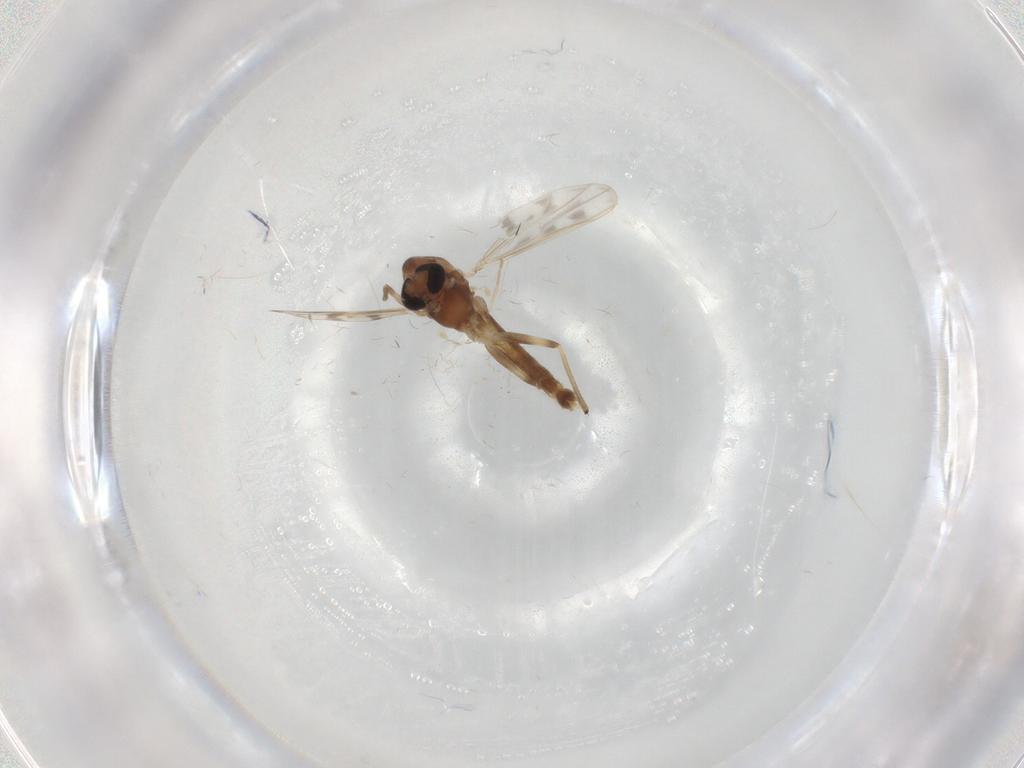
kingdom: Animalia
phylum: Arthropoda
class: Insecta
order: Diptera
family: Chironomidae
